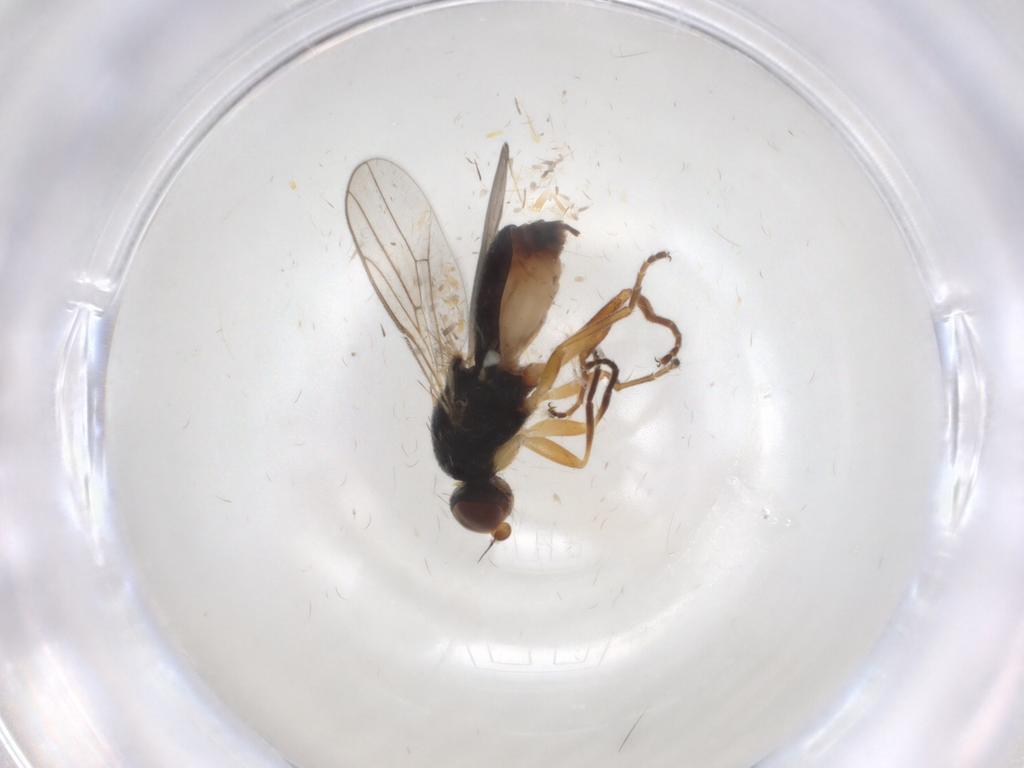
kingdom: Animalia
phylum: Arthropoda
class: Insecta
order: Diptera
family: Chloropidae
